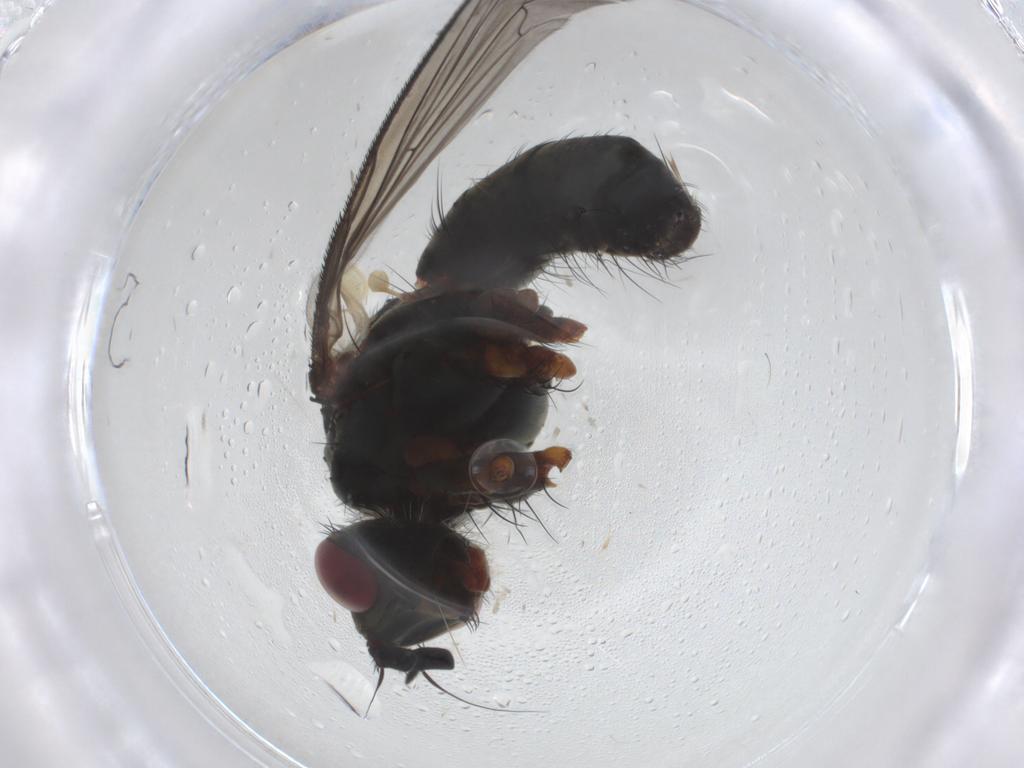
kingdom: Animalia
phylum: Arthropoda
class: Insecta
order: Diptera
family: Tachinidae
